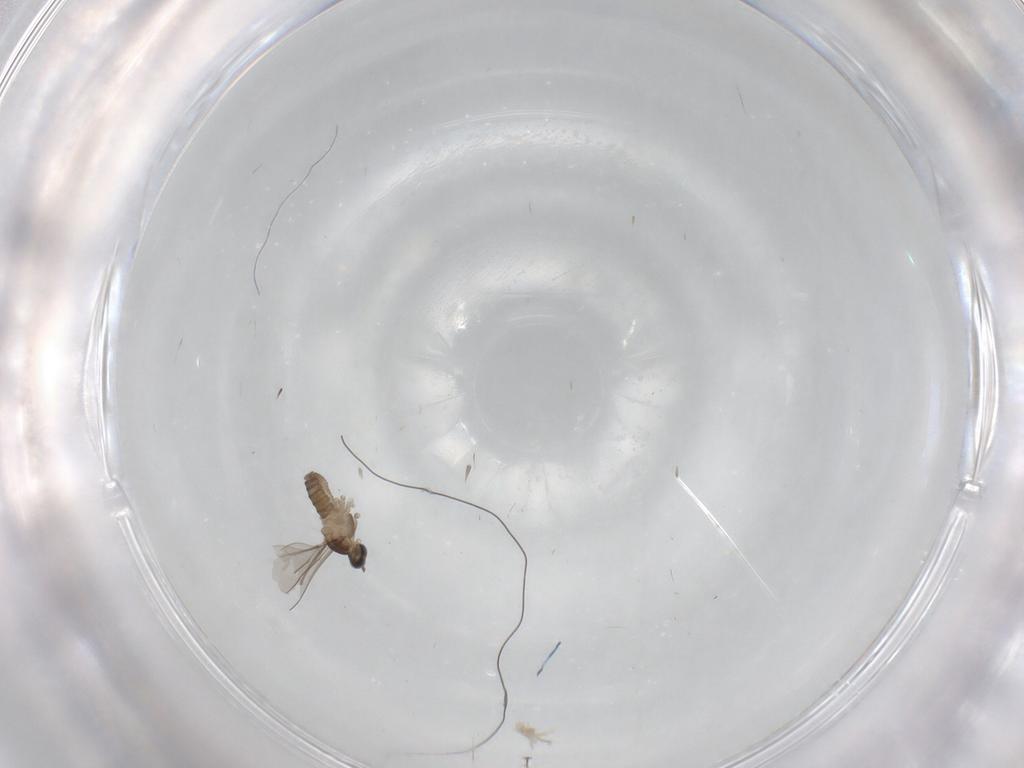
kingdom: Animalia
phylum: Arthropoda
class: Insecta
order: Diptera
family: Cecidomyiidae
